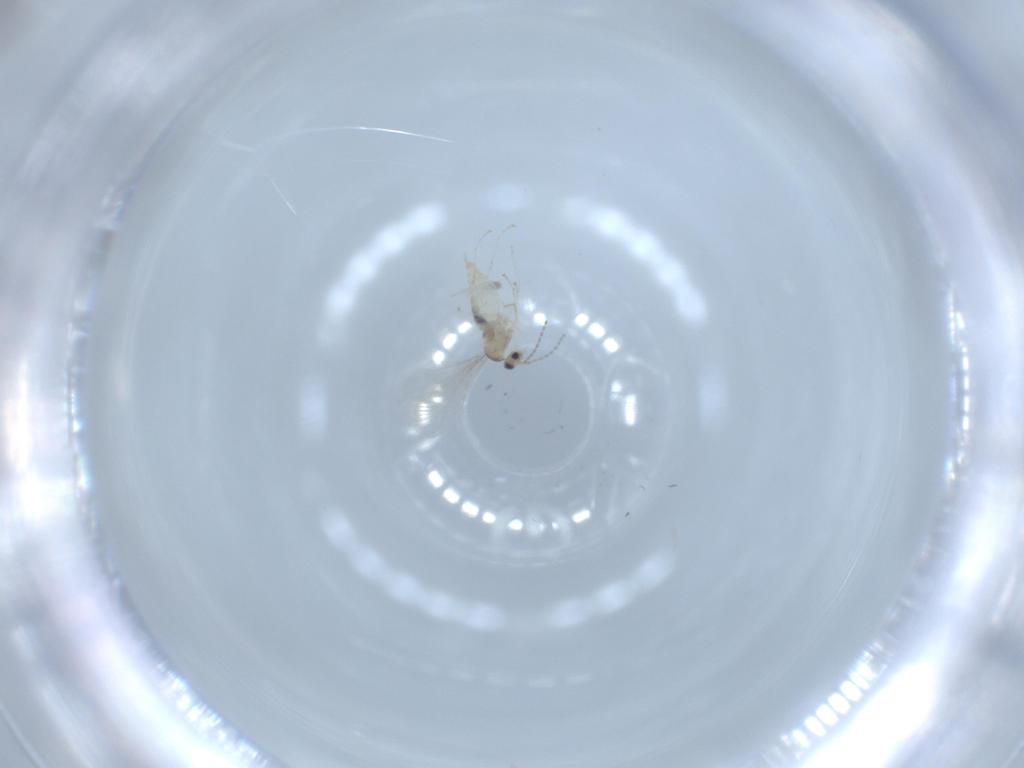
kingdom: Animalia
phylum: Arthropoda
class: Insecta
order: Diptera
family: Cecidomyiidae
